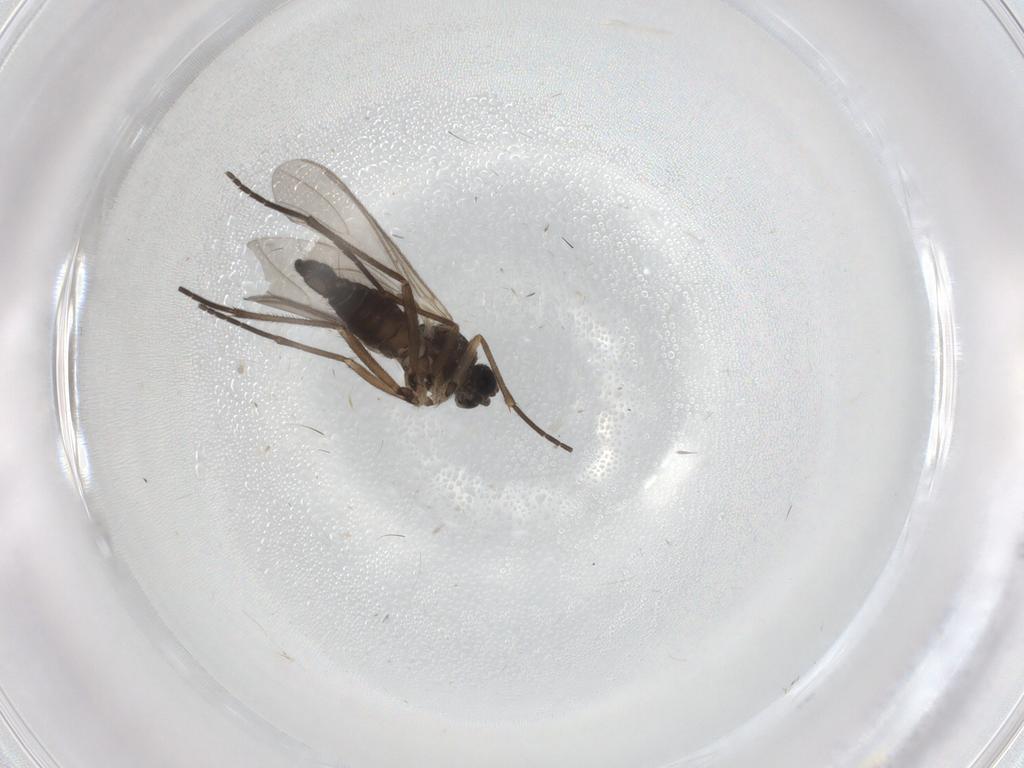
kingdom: Animalia
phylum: Arthropoda
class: Insecta
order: Diptera
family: Sciaridae
